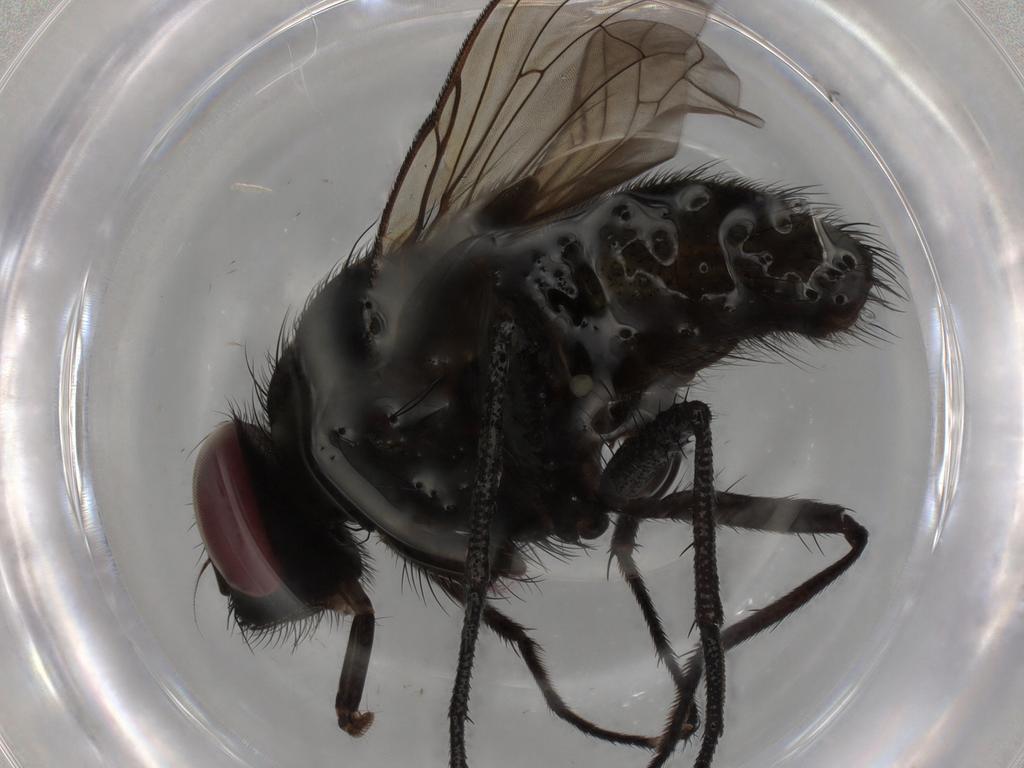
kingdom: Animalia
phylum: Arthropoda
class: Insecta
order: Diptera
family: Muscidae
